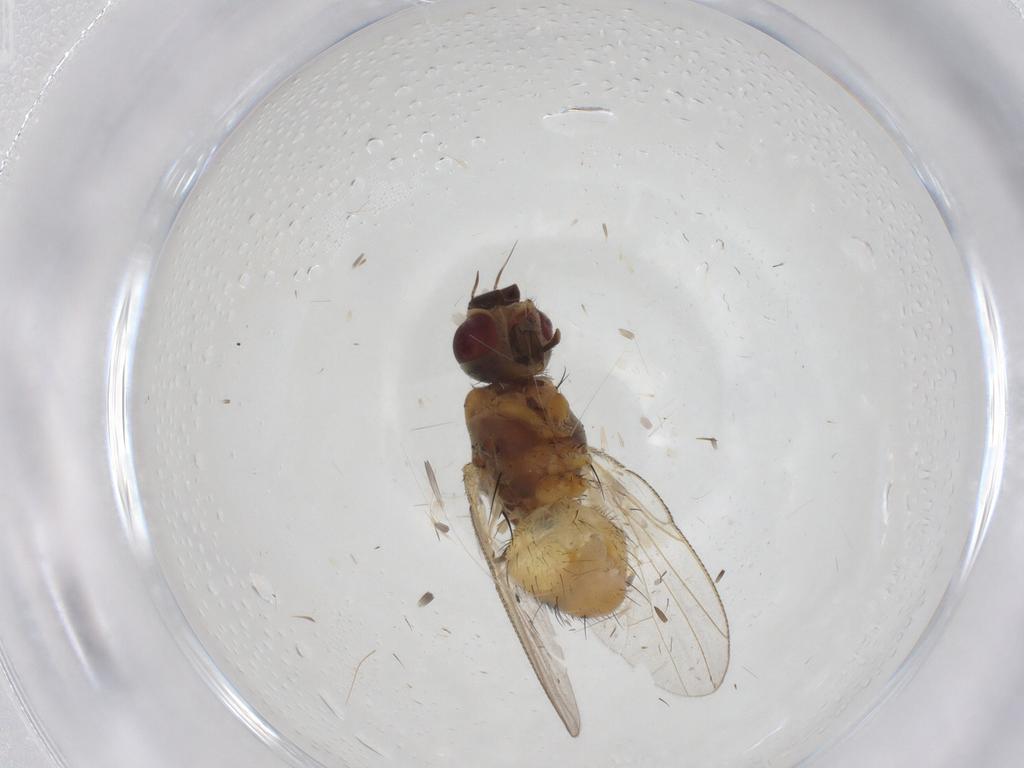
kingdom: Animalia
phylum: Arthropoda
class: Insecta
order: Diptera
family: Muscidae
